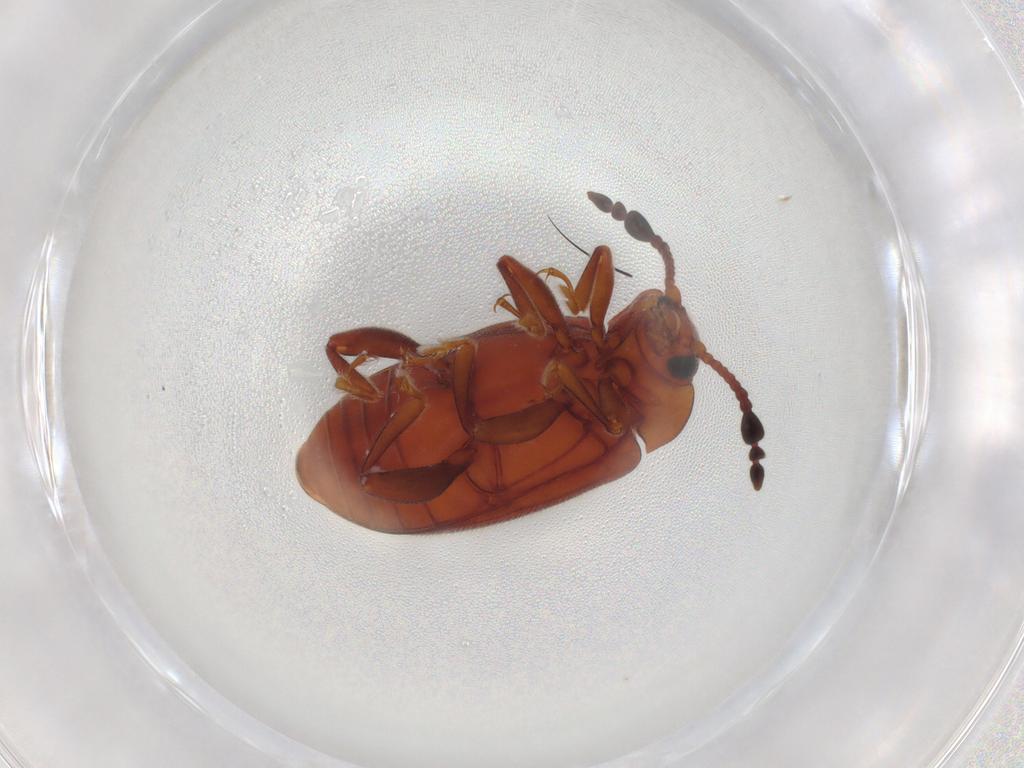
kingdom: Animalia
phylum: Arthropoda
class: Insecta
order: Coleoptera
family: Endomychidae
